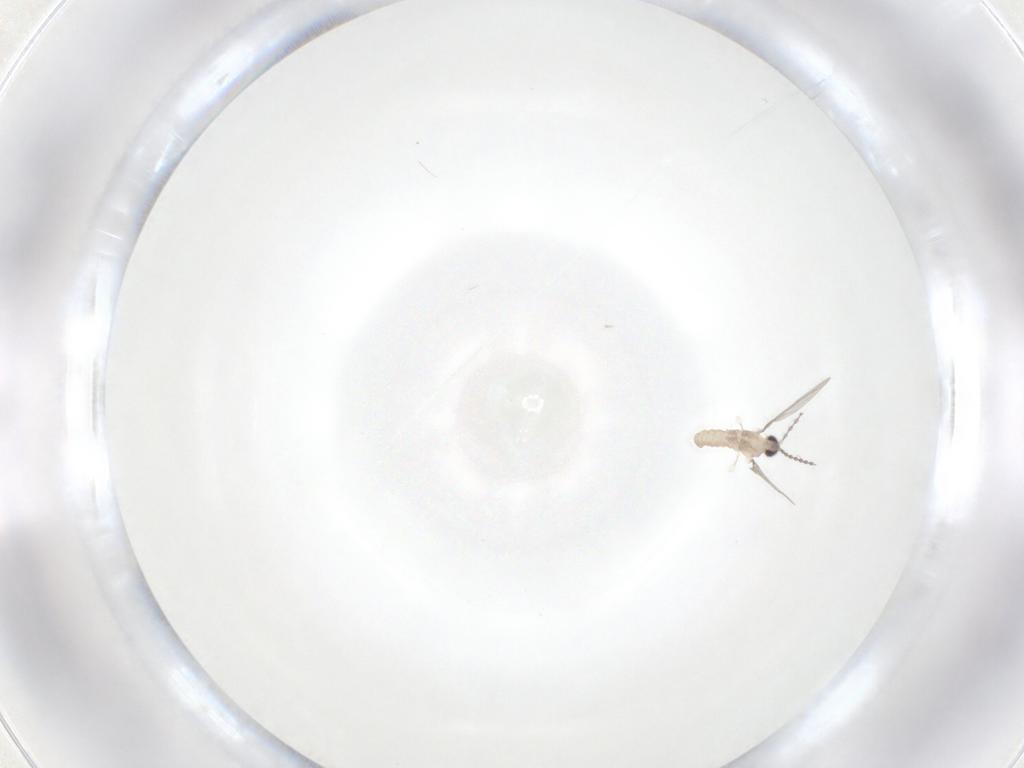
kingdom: Animalia
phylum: Arthropoda
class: Insecta
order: Diptera
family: Cecidomyiidae
